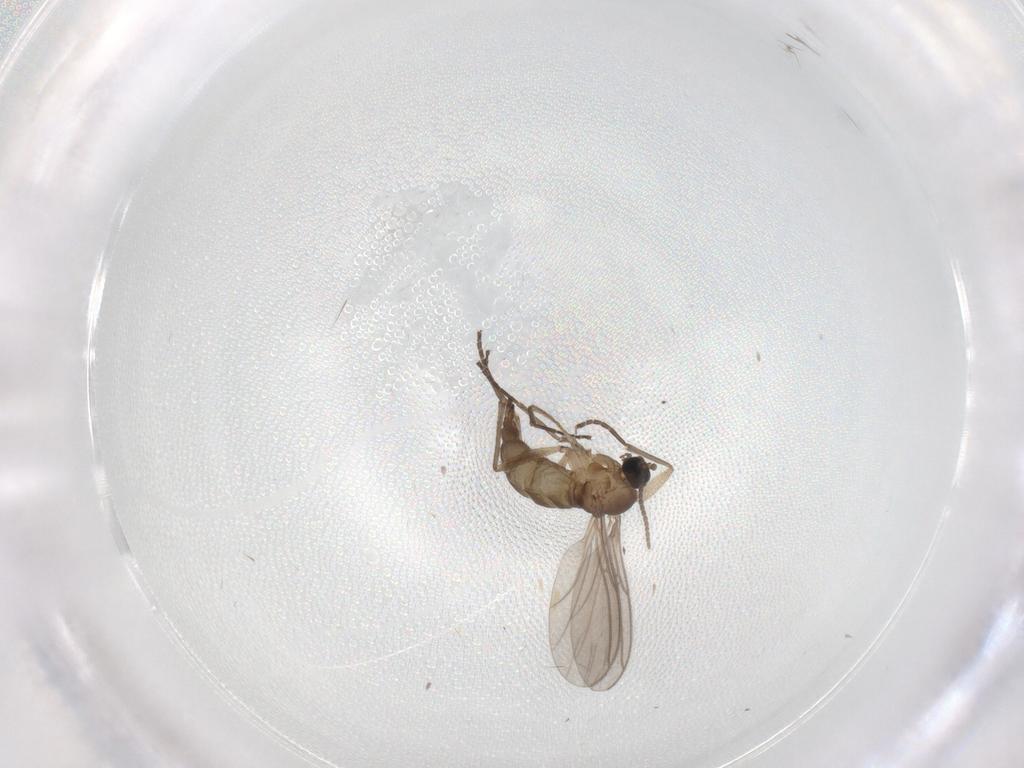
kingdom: Animalia
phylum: Arthropoda
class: Insecta
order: Diptera
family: Sciaridae
